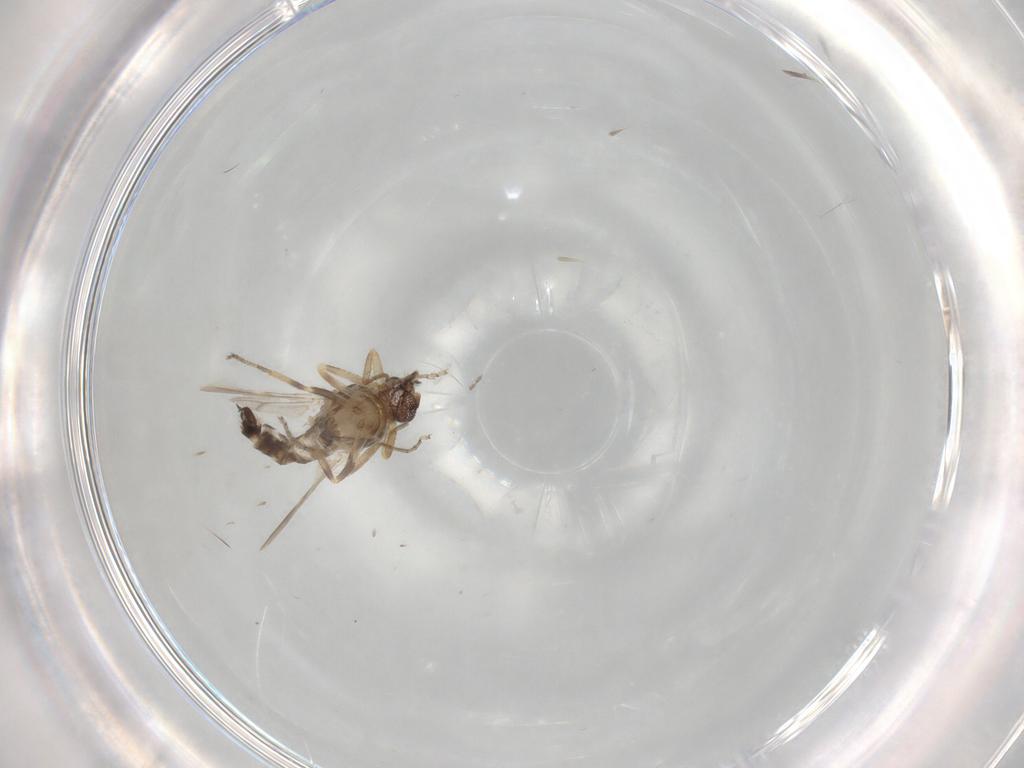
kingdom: Animalia
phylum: Arthropoda
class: Insecta
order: Diptera
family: Ceratopogonidae
